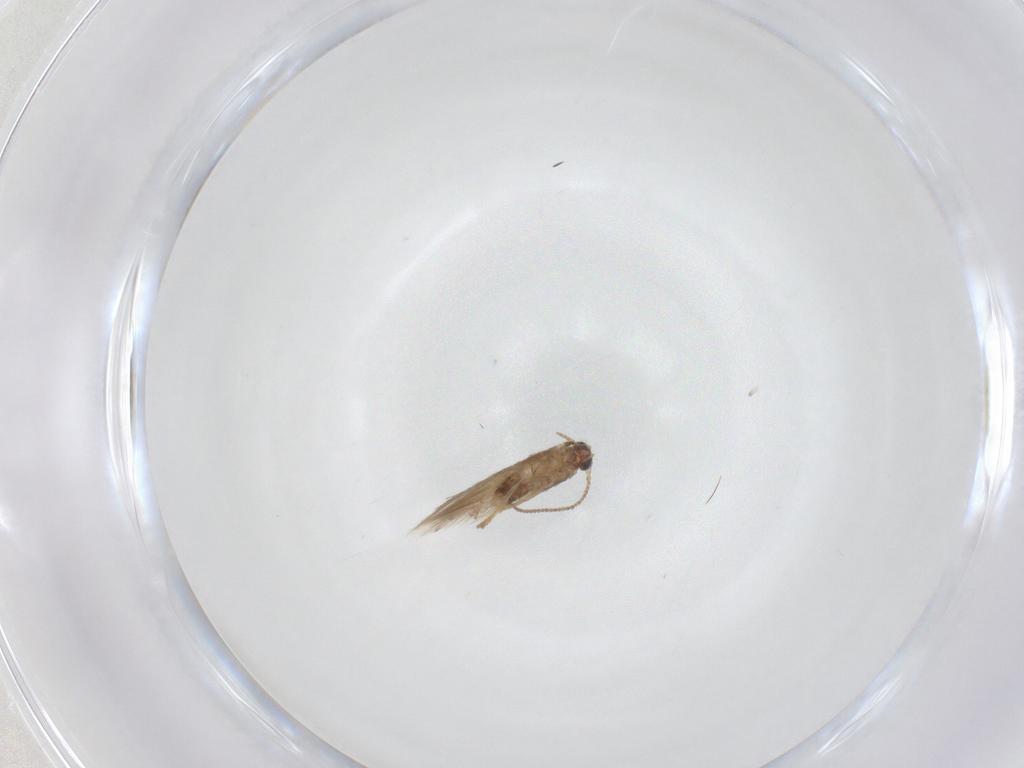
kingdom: Animalia
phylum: Arthropoda
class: Insecta
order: Lepidoptera
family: Nepticulidae
